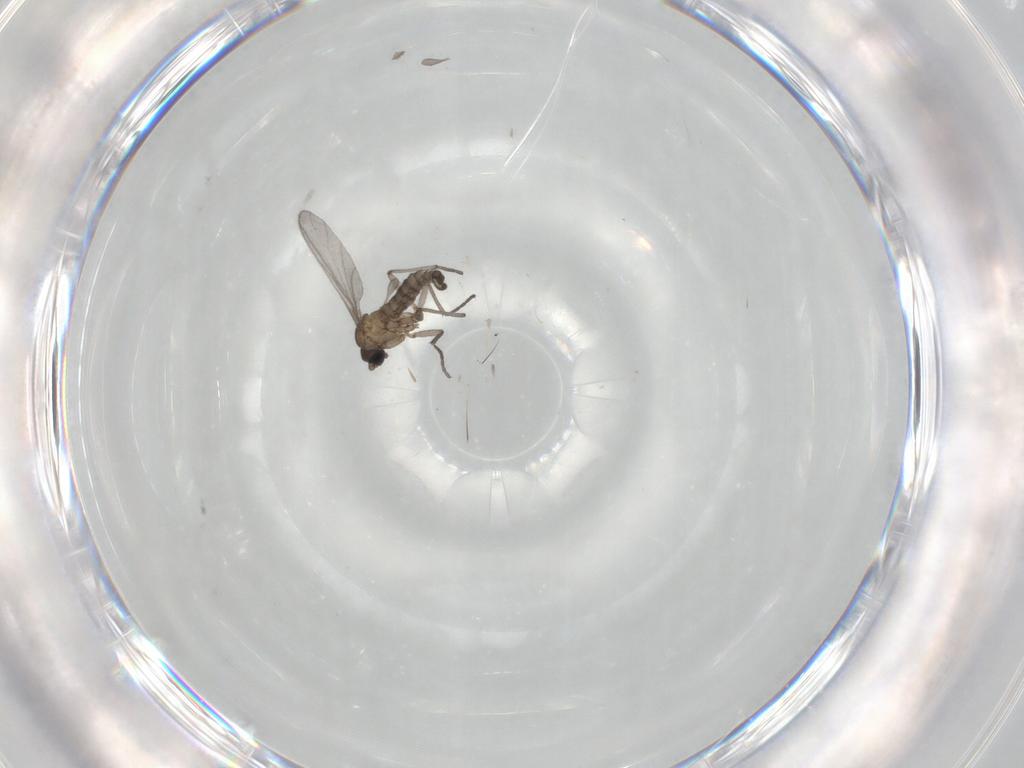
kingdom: Animalia
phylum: Arthropoda
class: Insecta
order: Diptera
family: Sciaridae
